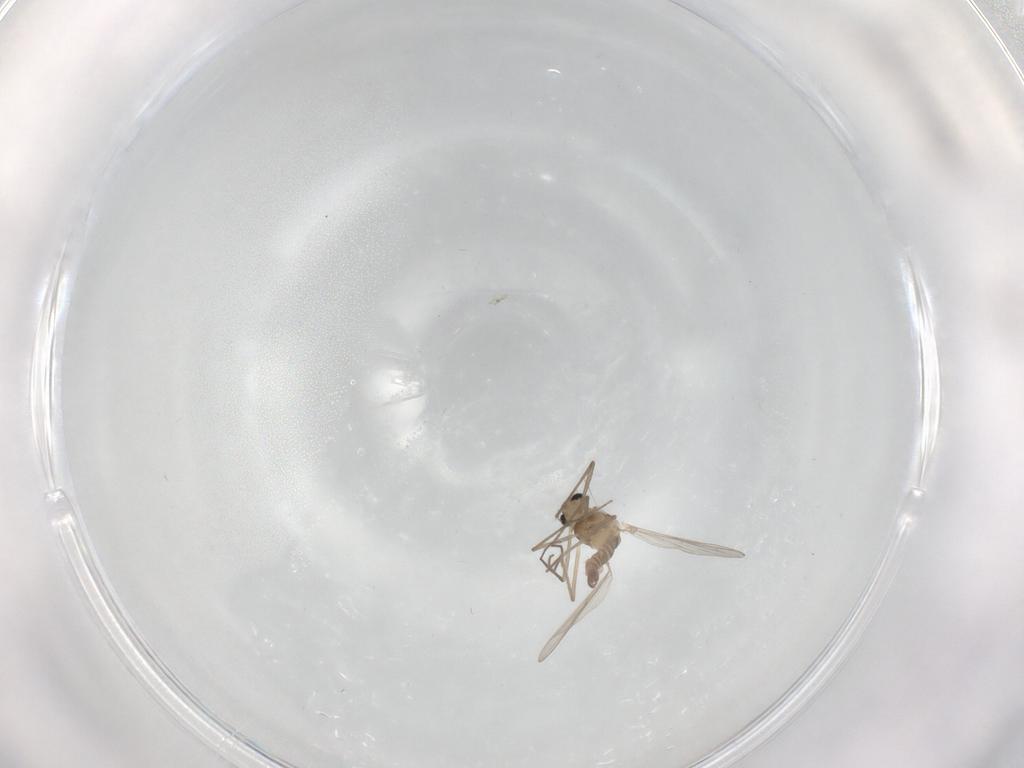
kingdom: Animalia
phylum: Arthropoda
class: Insecta
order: Diptera
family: Chironomidae
